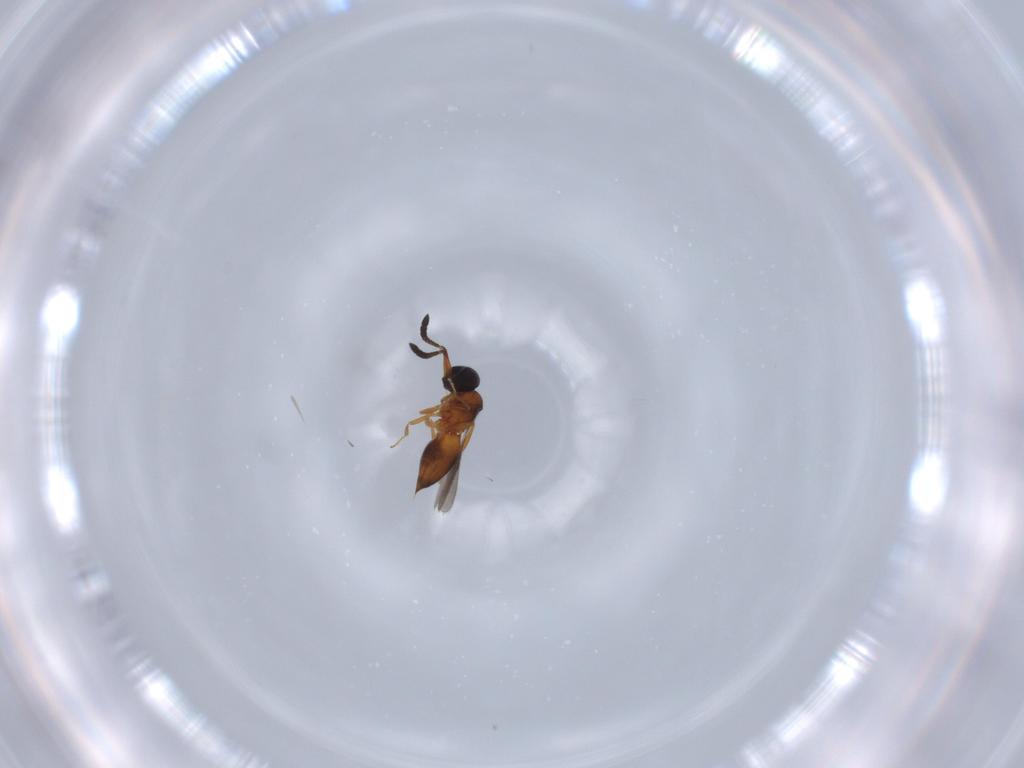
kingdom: Animalia
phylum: Arthropoda
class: Insecta
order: Hymenoptera
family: Ceraphronidae
